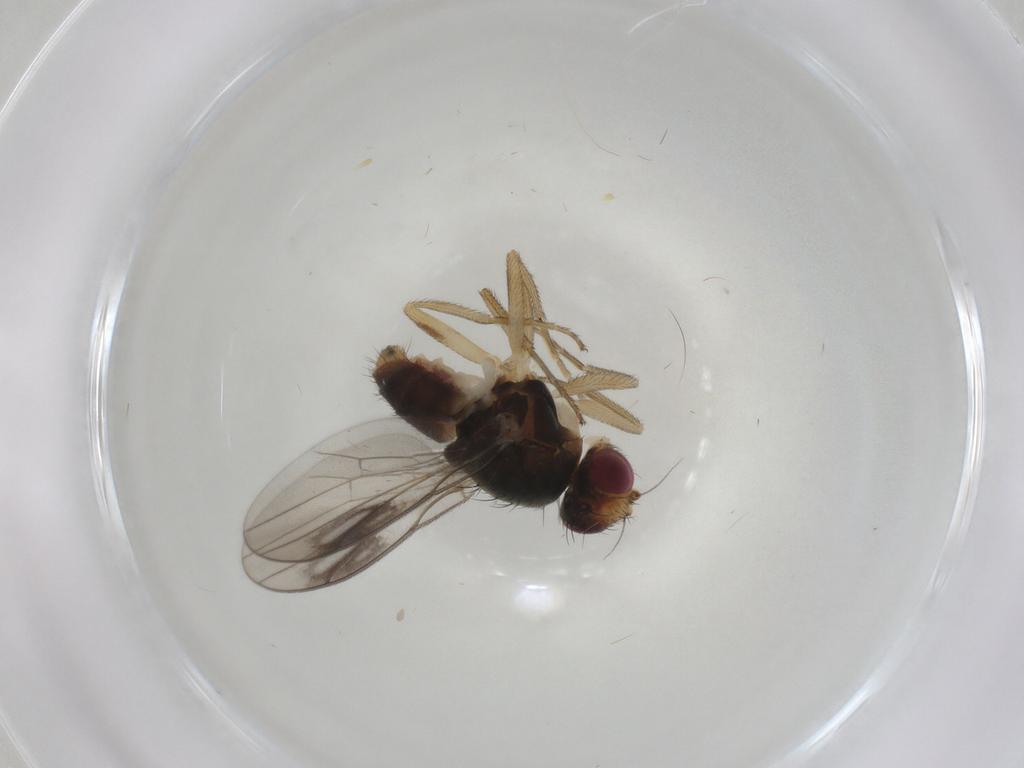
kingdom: Animalia
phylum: Arthropoda
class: Insecta
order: Diptera
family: Chloropidae
